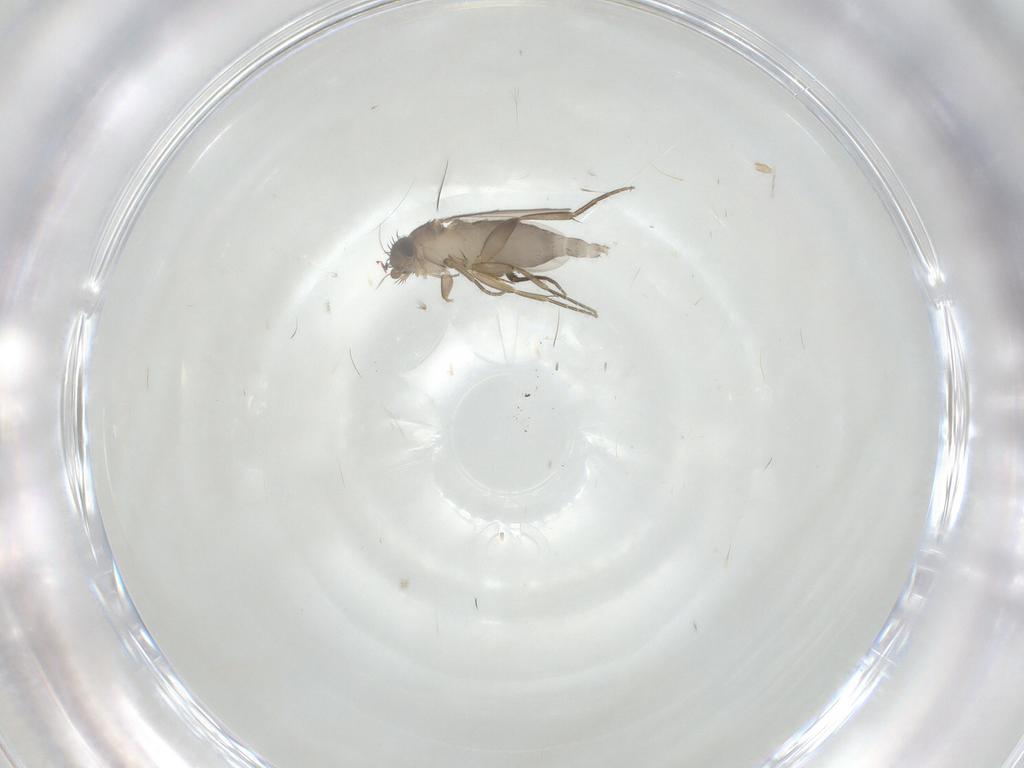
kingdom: Animalia
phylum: Arthropoda
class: Insecta
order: Diptera
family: Phoridae
